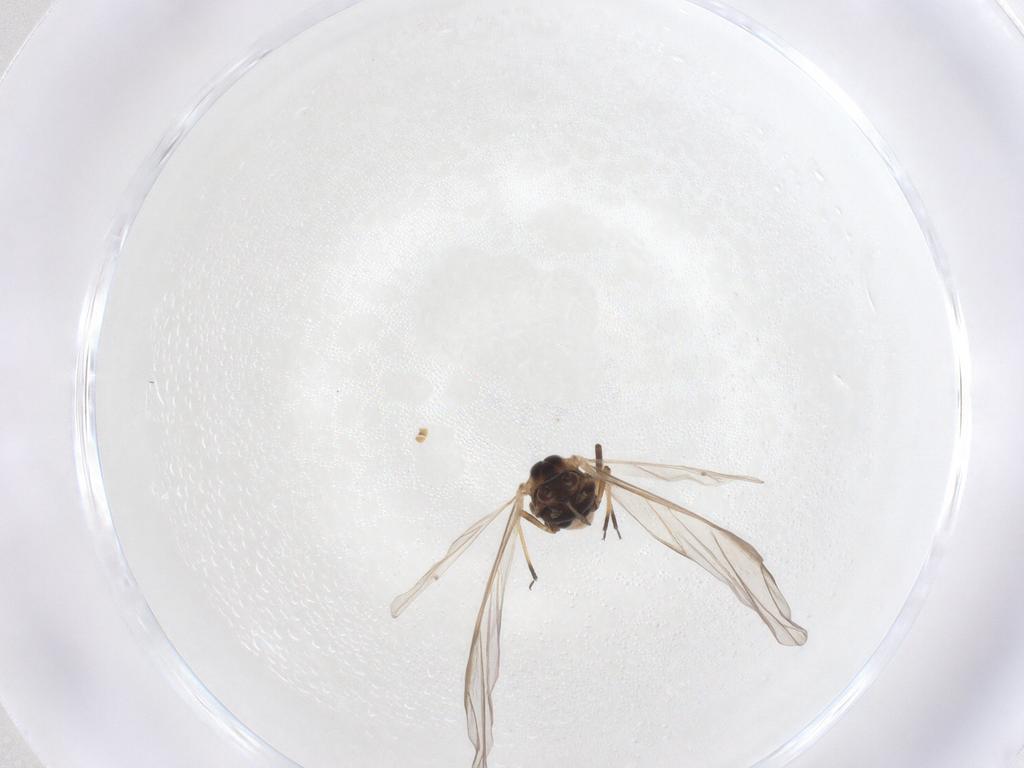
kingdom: Animalia
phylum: Arthropoda
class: Insecta
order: Hemiptera
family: Aphididae
